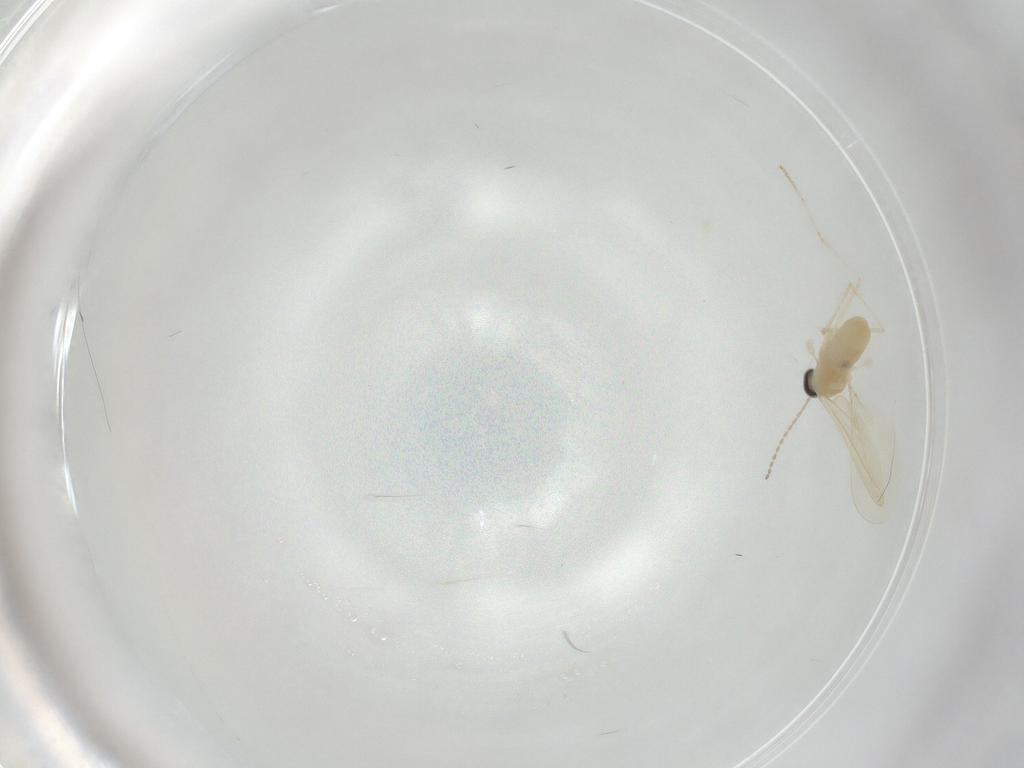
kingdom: Animalia
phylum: Arthropoda
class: Insecta
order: Diptera
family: Cecidomyiidae
